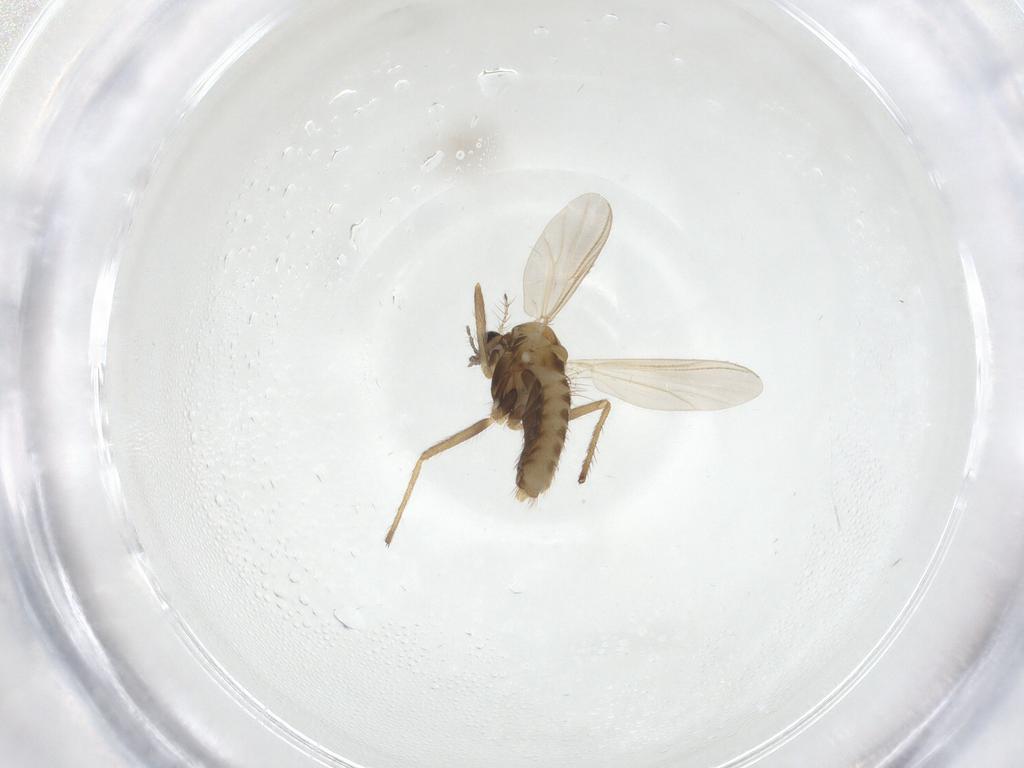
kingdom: Animalia
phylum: Arthropoda
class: Insecta
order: Diptera
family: Chironomidae
